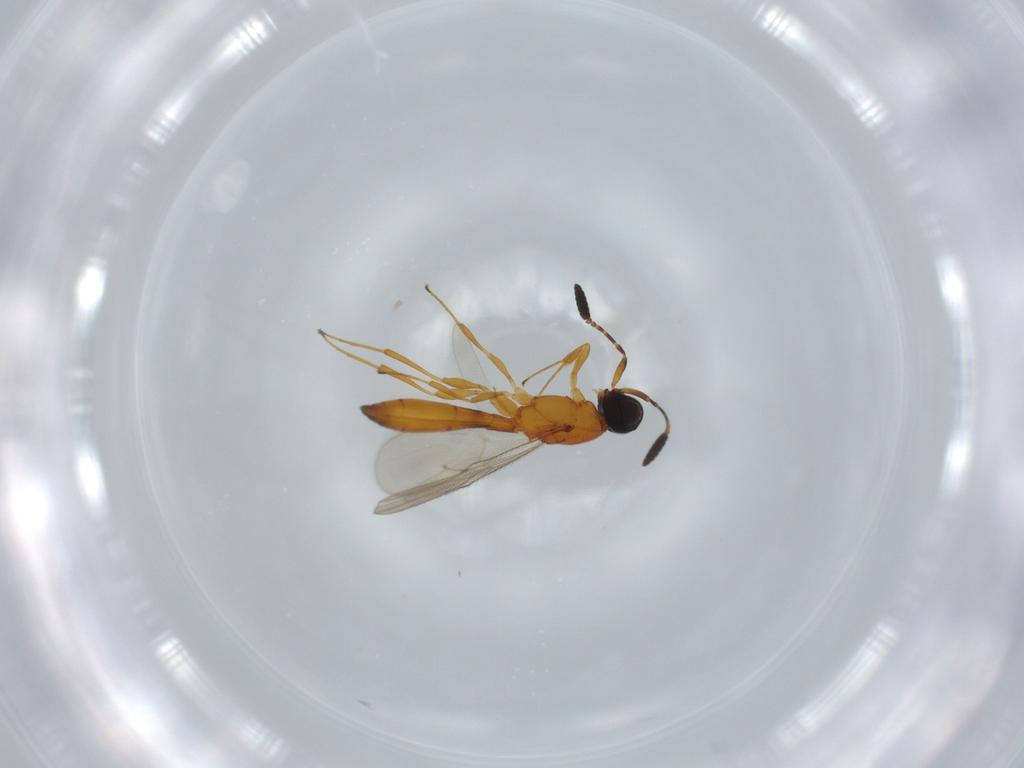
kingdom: Animalia
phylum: Arthropoda
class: Insecta
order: Hymenoptera
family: Scelionidae
